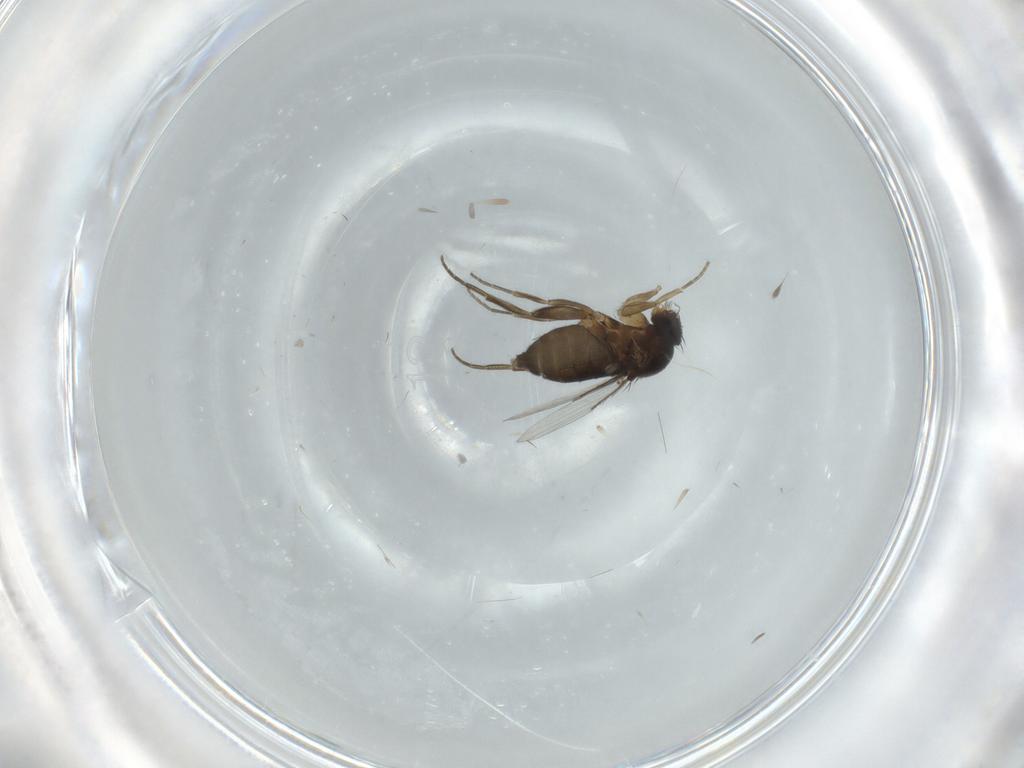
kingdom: Animalia
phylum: Arthropoda
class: Insecta
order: Diptera
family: Phoridae
